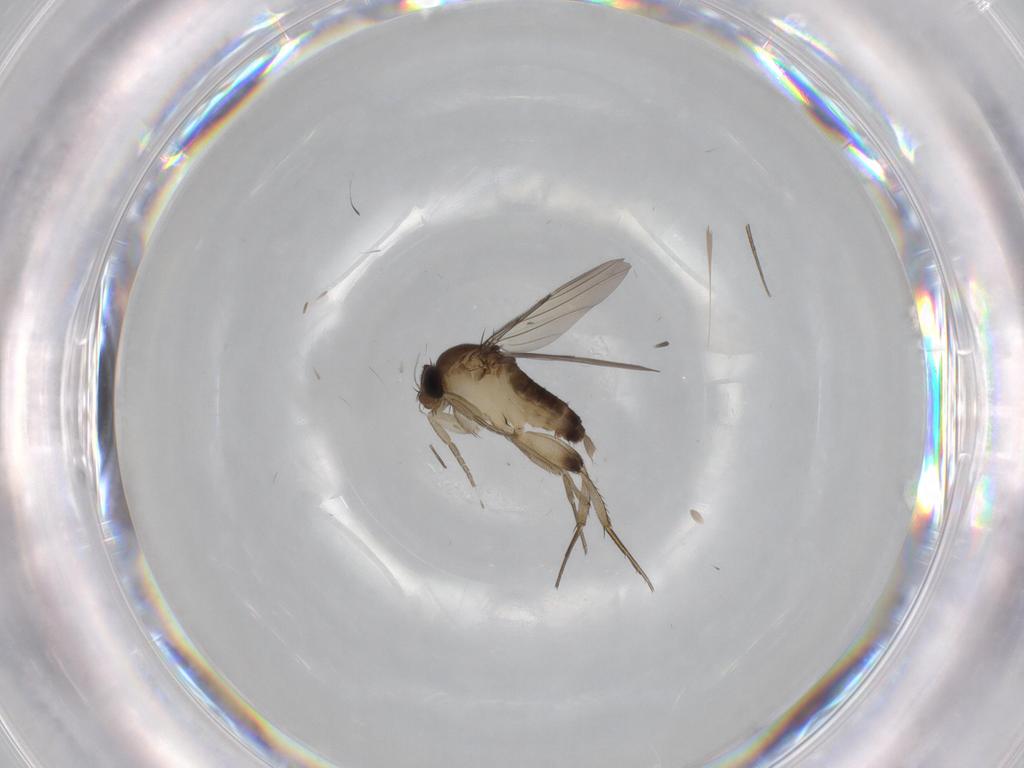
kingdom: Animalia
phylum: Arthropoda
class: Insecta
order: Diptera
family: Phoridae
